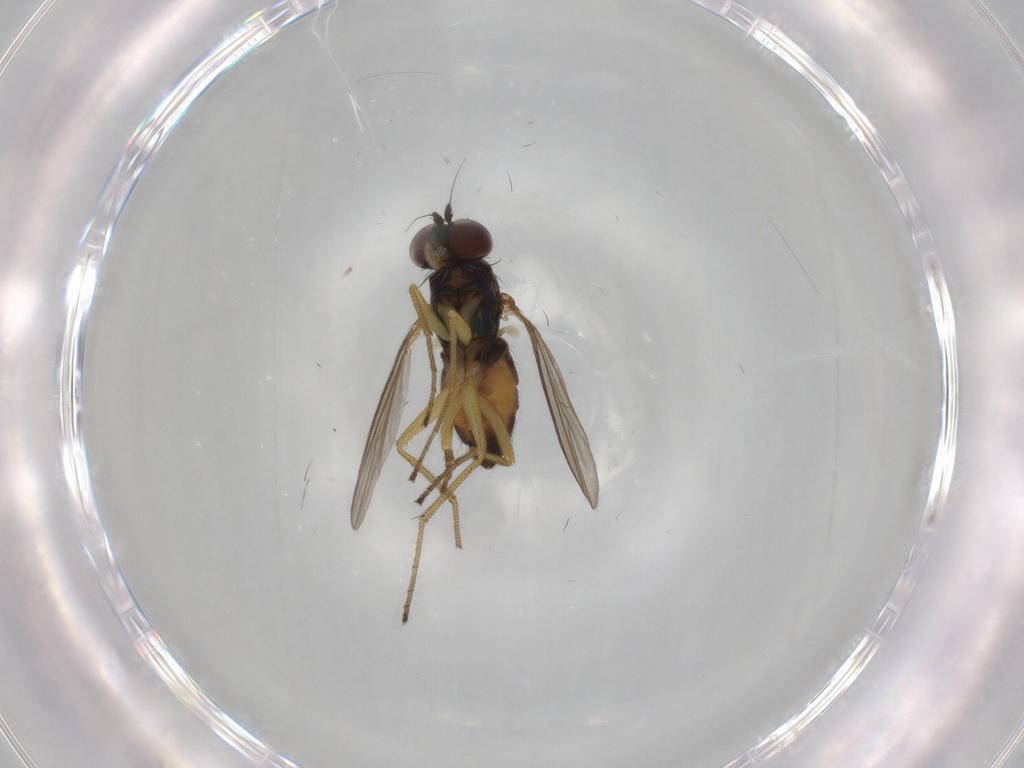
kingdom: Animalia
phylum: Arthropoda
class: Insecta
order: Diptera
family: Dolichopodidae
